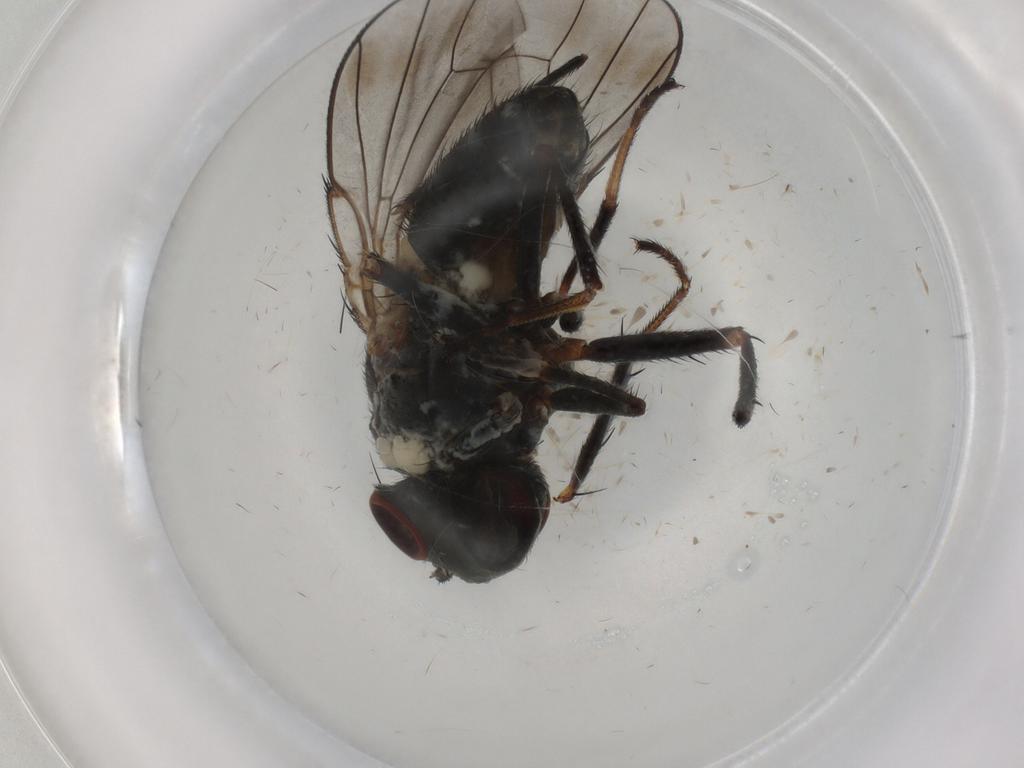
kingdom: Animalia
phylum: Arthropoda
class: Insecta
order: Diptera
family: Ephydridae
